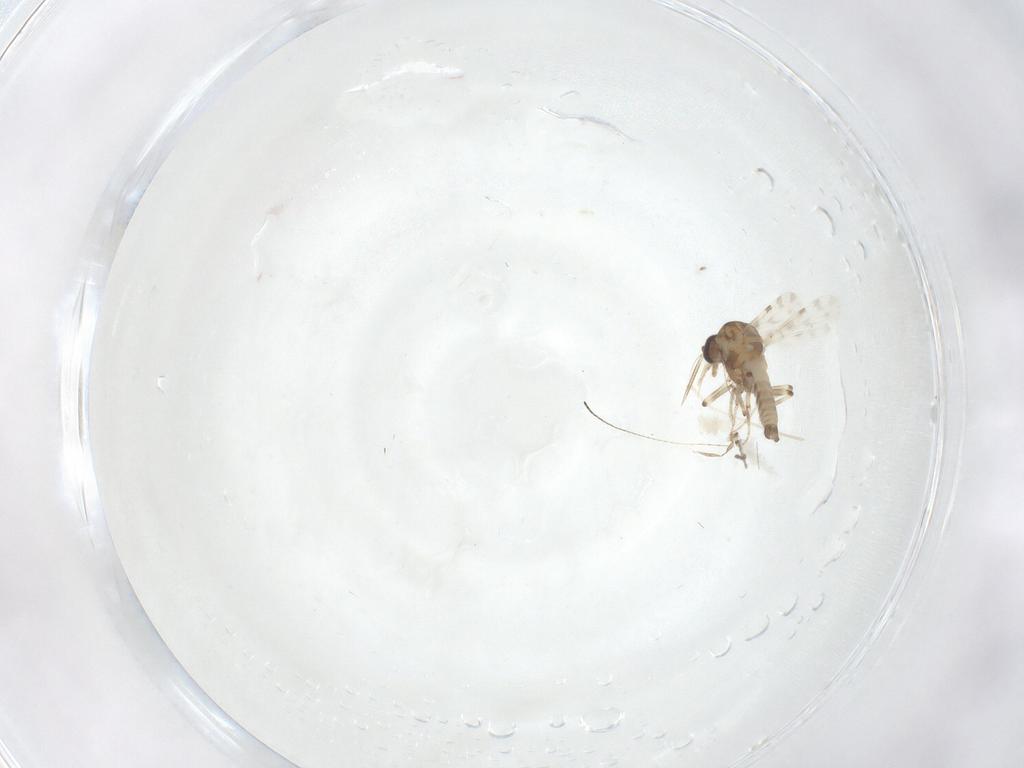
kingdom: Animalia
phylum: Arthropoda
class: Insecta
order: Diptera
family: Cecidomyiidae
